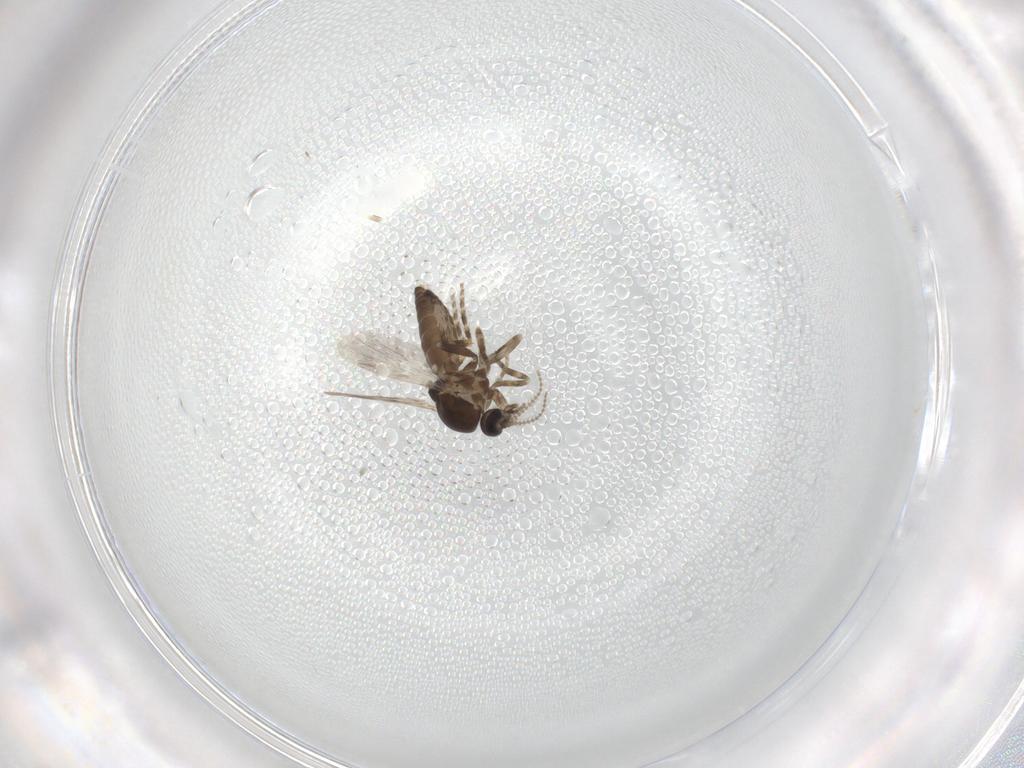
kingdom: Animalia
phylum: Arthropoda
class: Insecta
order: Diptera
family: Ceratopogonidae
